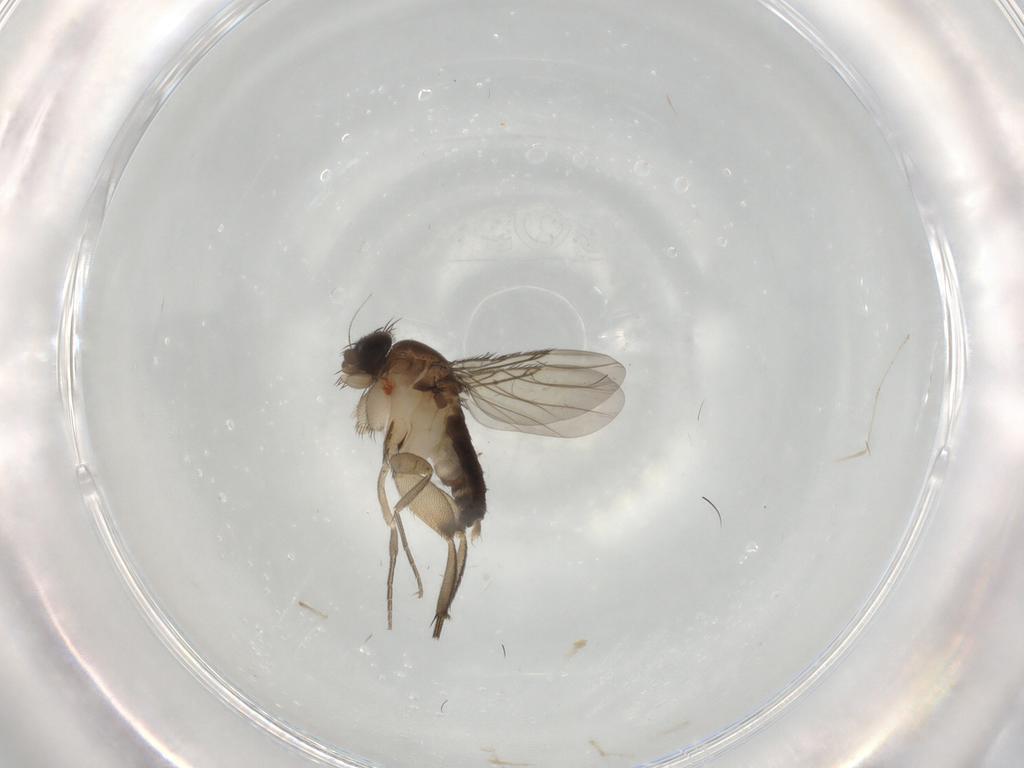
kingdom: Animalia
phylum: Arthropoda
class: Insecta
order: Diptera
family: Phoridae
